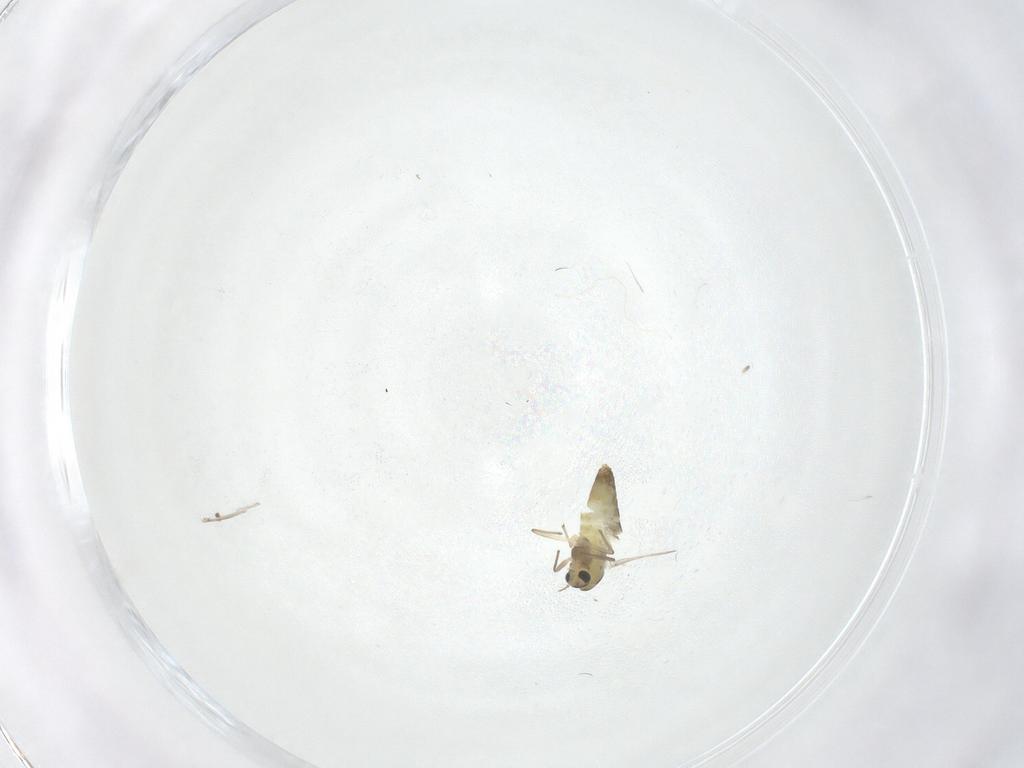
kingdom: Animalia
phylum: Arthropoda
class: Insecta
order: Diptera
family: Chironomidae
